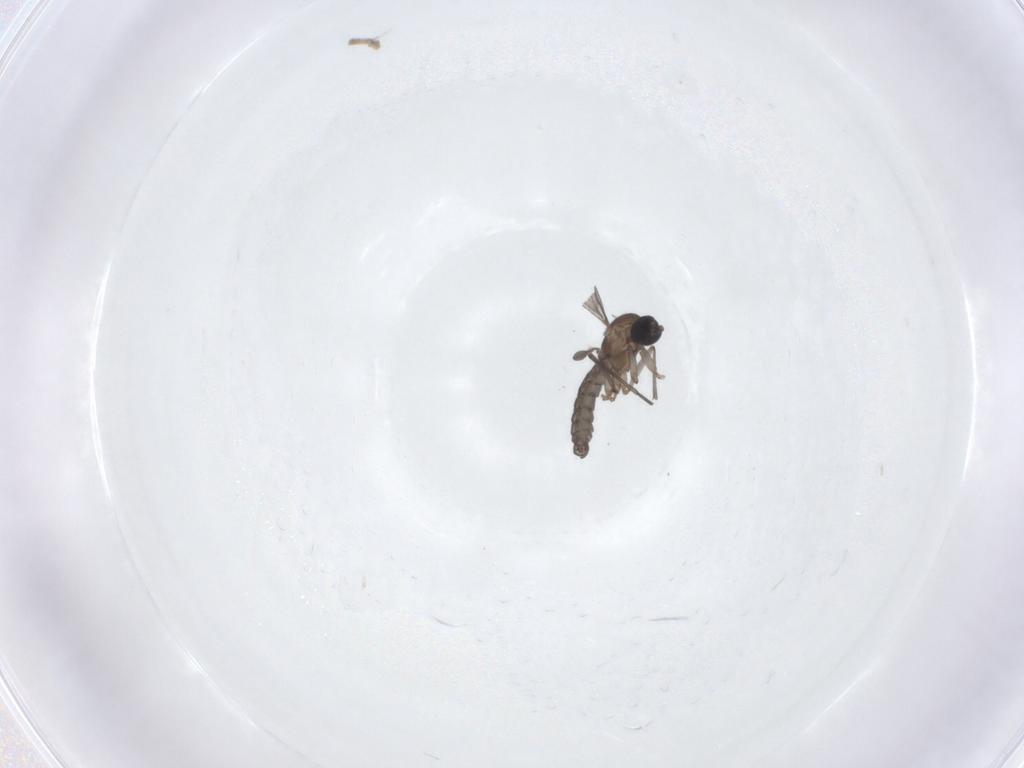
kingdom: Animalia
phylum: Arthropoda
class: Insecta
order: Diptera
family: Phoridae
